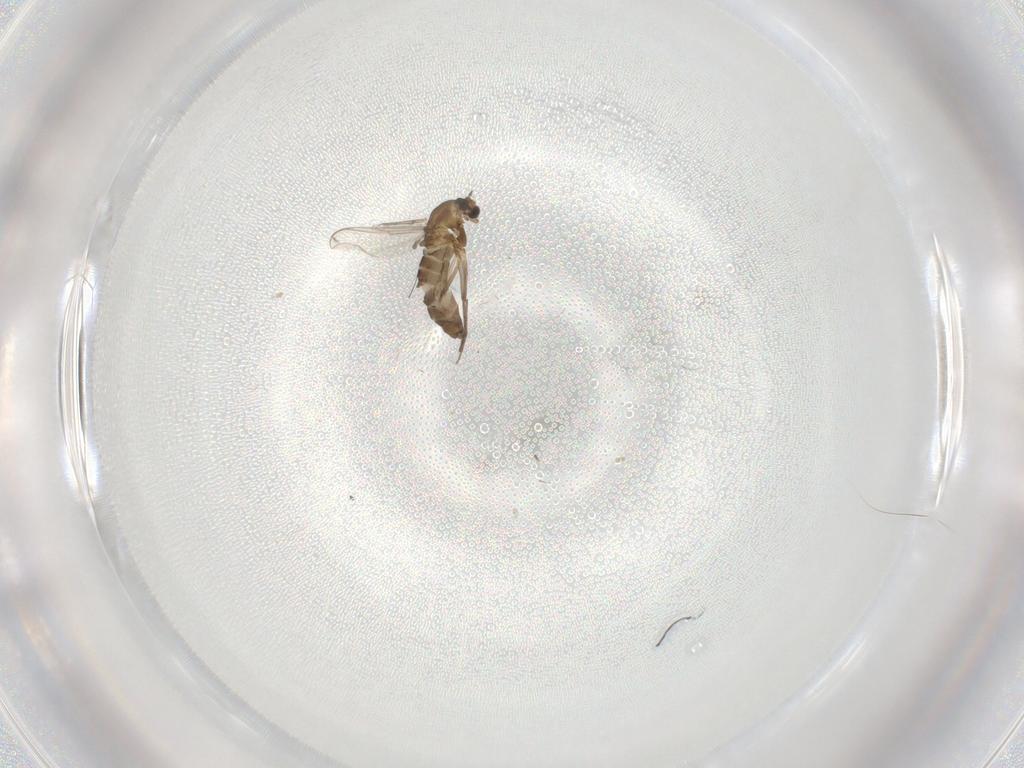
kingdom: Animalia
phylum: Arthropoda
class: Insecta
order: Diptera
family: Chironomidae
